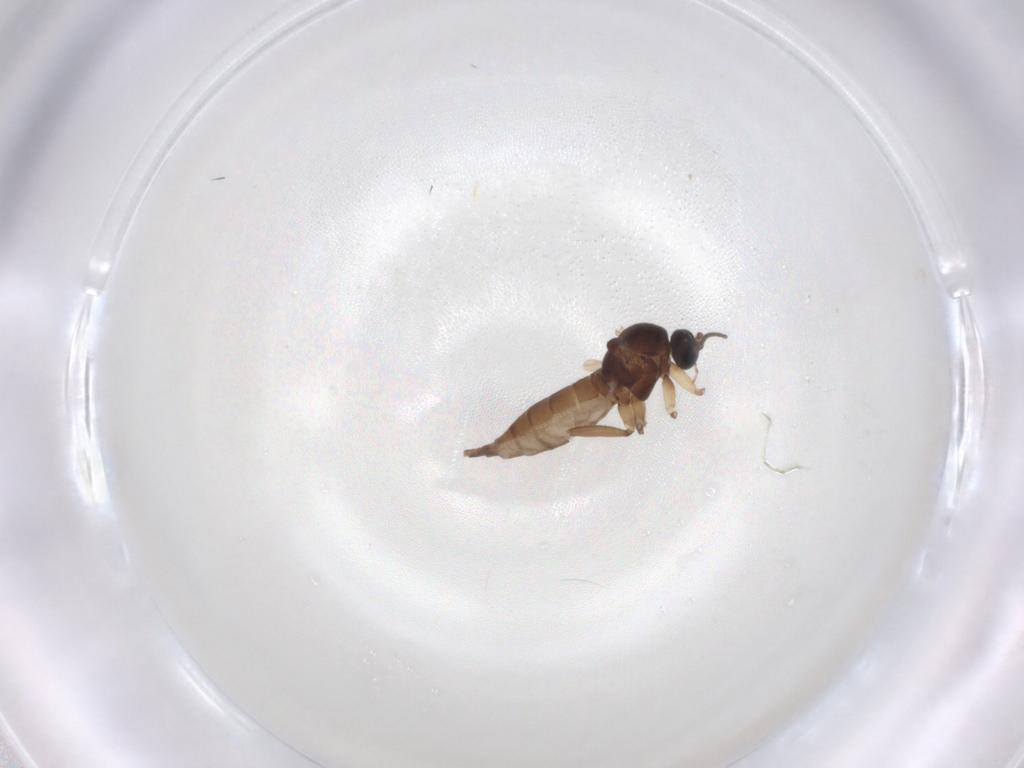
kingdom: Animalia
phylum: Arthropoda
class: Insecta
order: Diptera
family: Sciaridae
